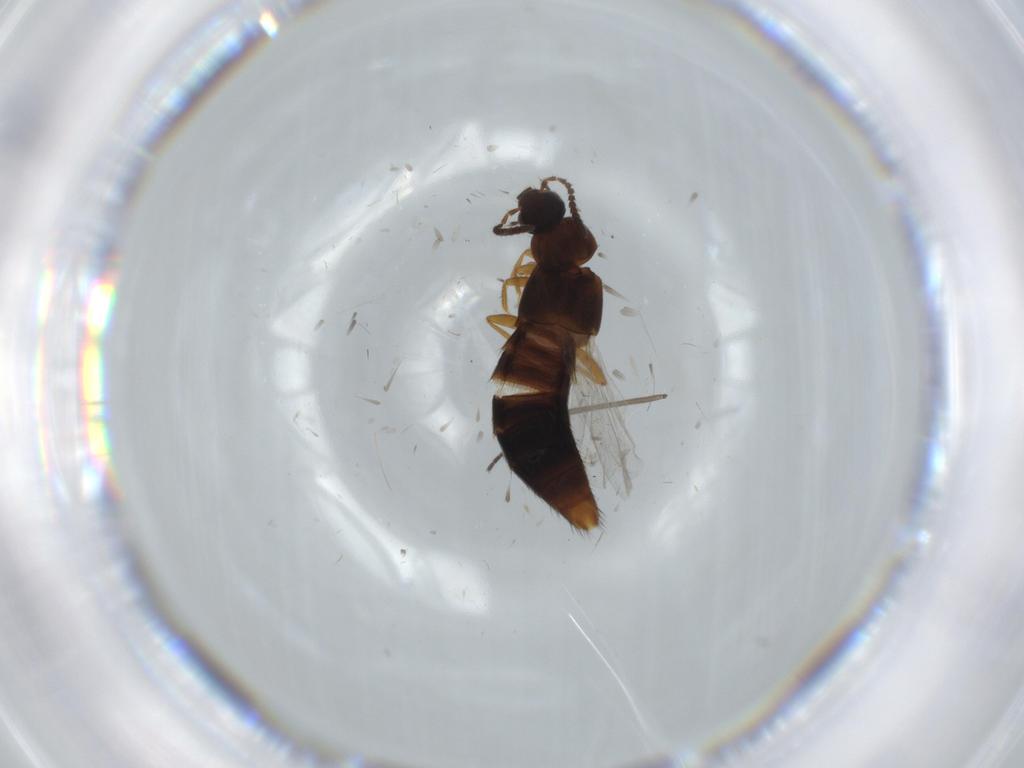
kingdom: Animalia
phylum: Arthropoda
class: Insecta
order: Coleoptera
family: Staphylinidae
